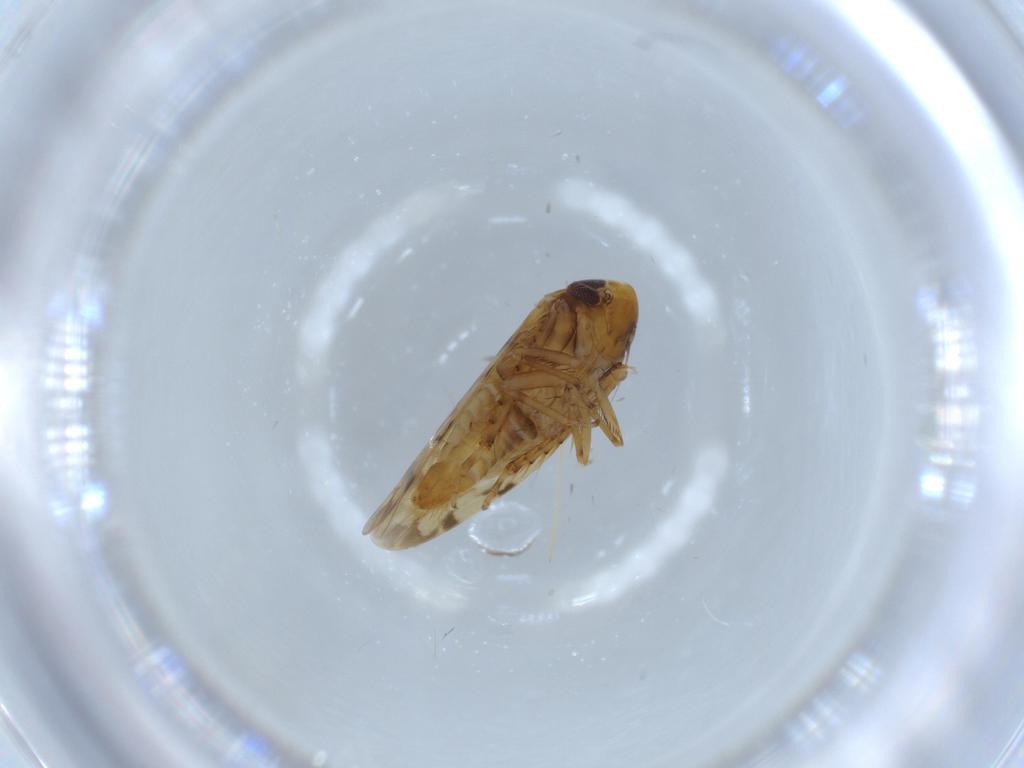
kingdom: Animalia
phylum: Arthropoda
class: Insecta
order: Hemiptera
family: Cicadellidae
